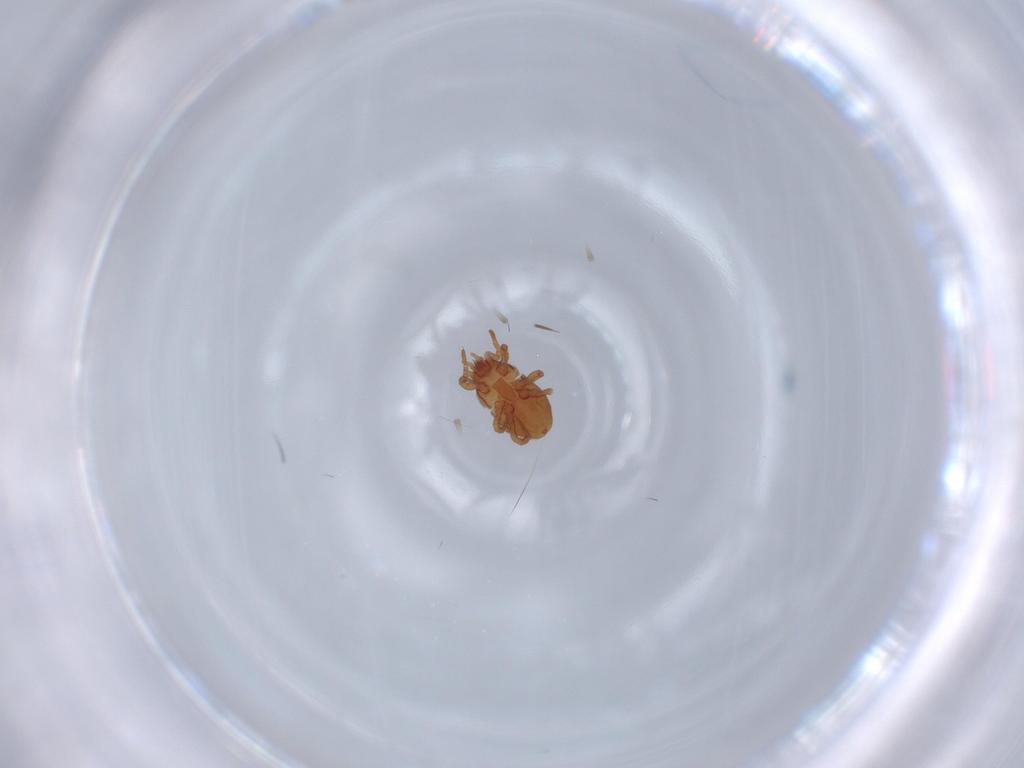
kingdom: Animalia
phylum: Arthropoda
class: Arachnida
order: Mesostigmata
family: Parasitidae
